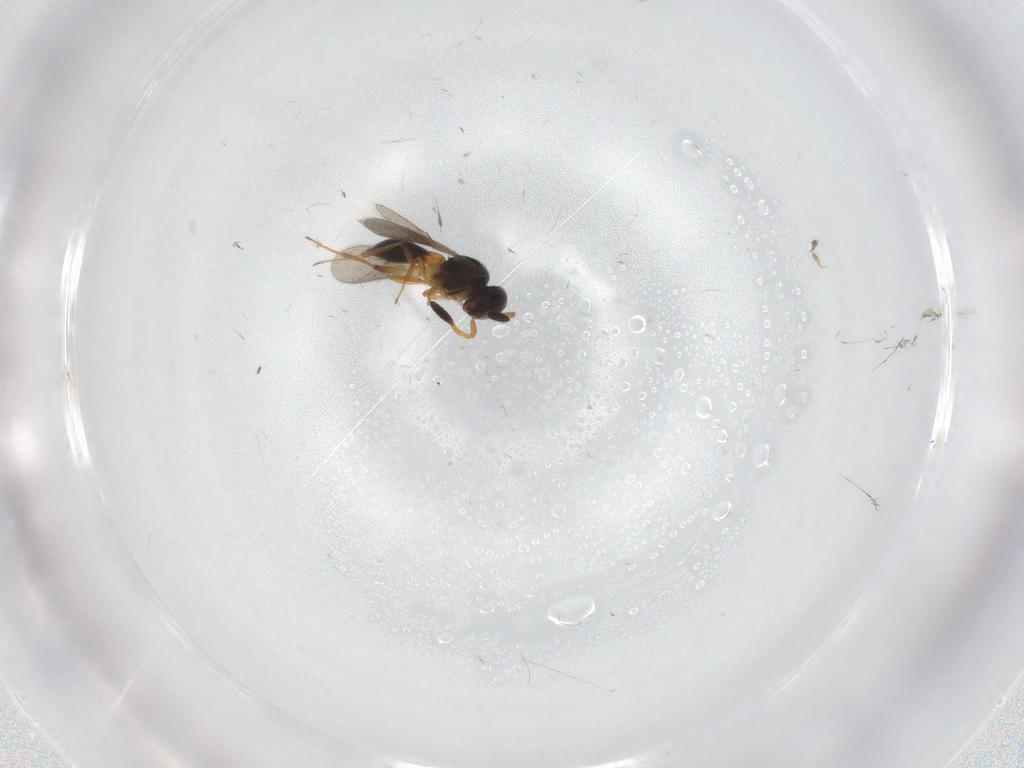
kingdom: Animalia
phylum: Arthropoda
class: Insecta
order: Hymenoptera
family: Scelionidae
